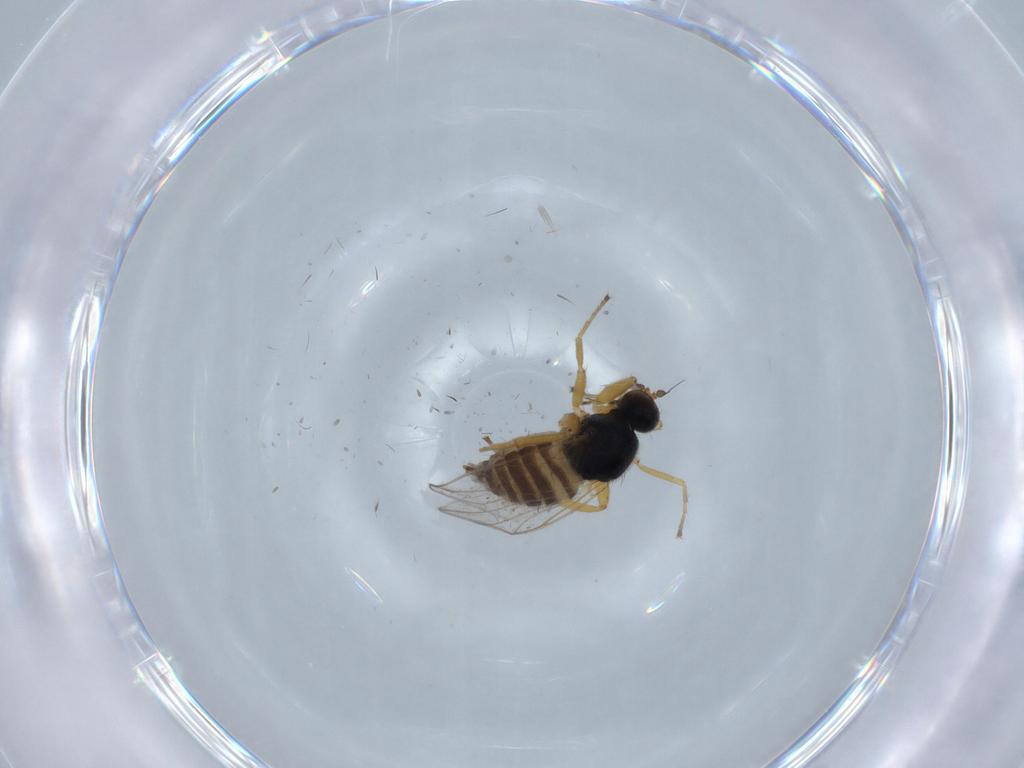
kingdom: Animalia
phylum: Arthropoda
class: Insecta
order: Diptera
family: Hybotidae
